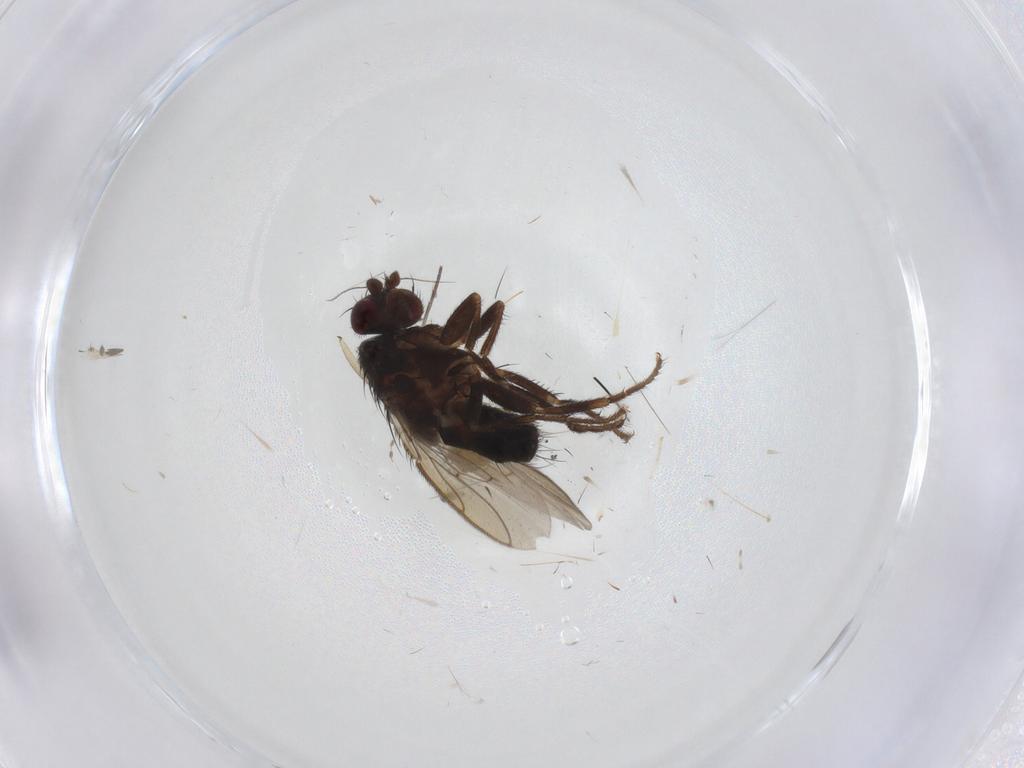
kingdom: Animalia
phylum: Arthropoda
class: Insecta
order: Diptera
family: Sphaeroceridae
